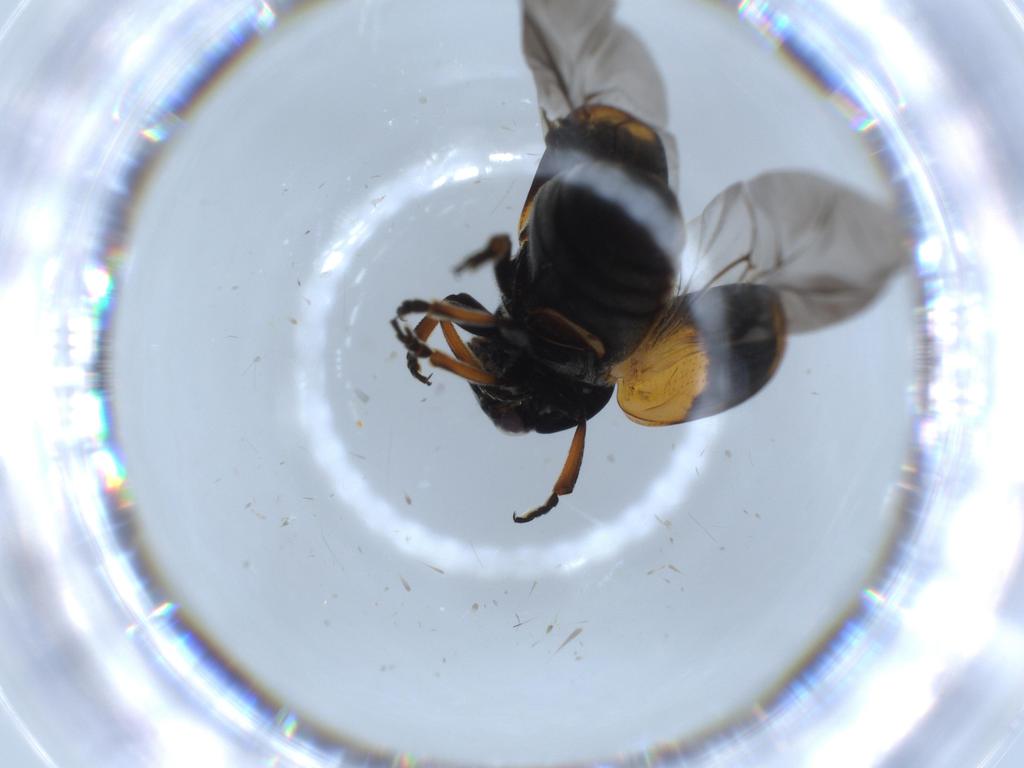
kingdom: Animalia
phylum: Arthropoda
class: Insecta
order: Coleoptera
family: Chrysomelidae
